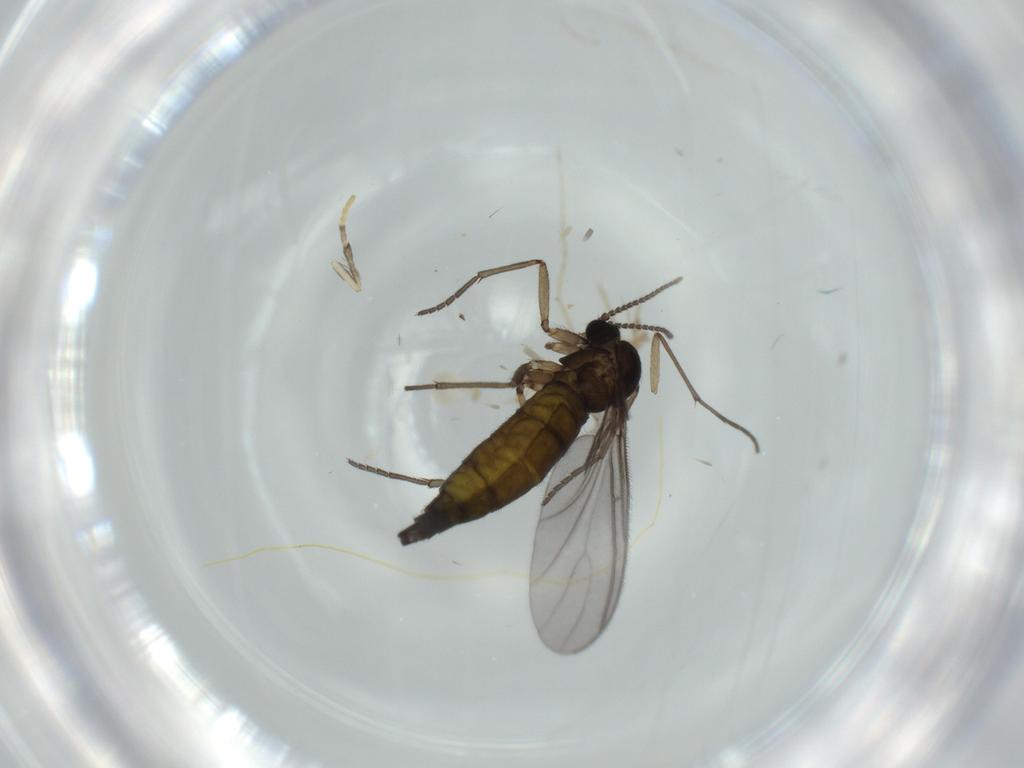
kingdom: Animalia
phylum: Arthropoda
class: Insecta
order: Diptera
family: Sciaridae
